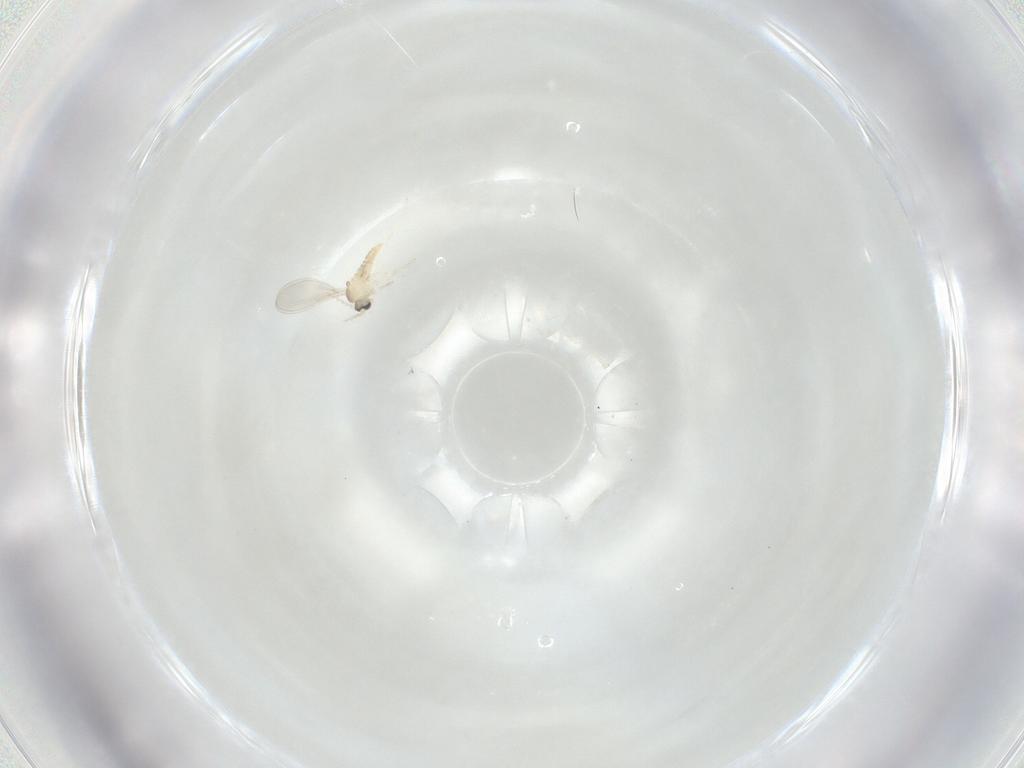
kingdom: Animalia
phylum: Arthropoda
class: Insecta
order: Diptera
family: Cecidomyiidae
